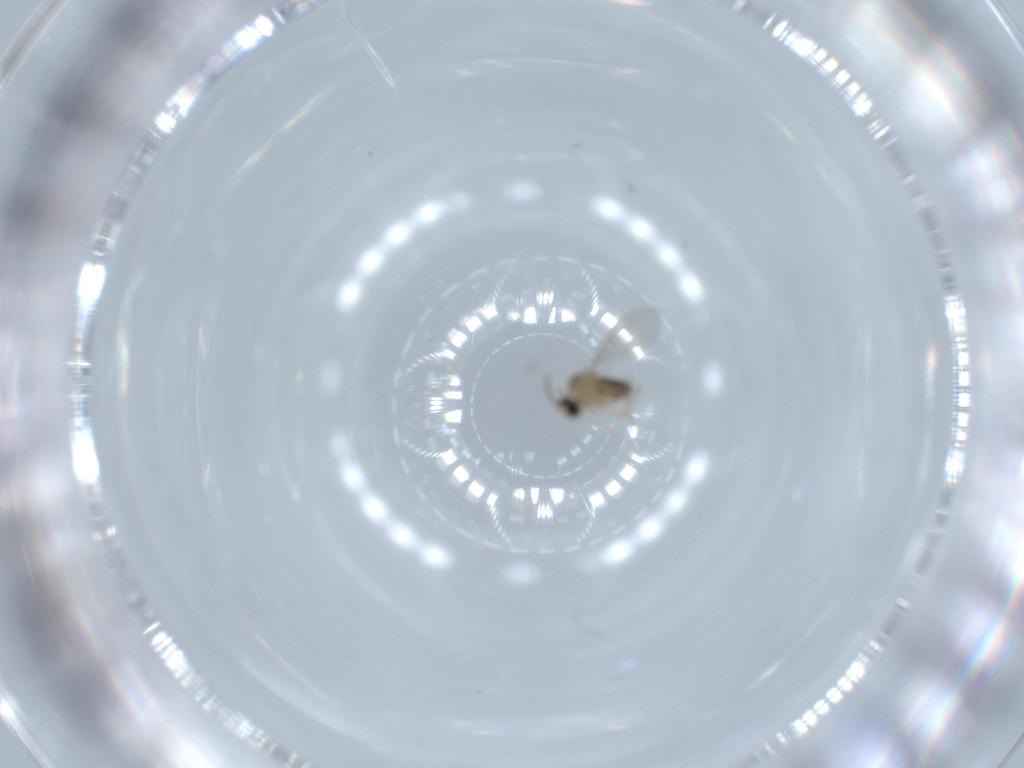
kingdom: Animalia
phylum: Arthropoda
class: Insecta
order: Diptera
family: Cecidomyiidae
